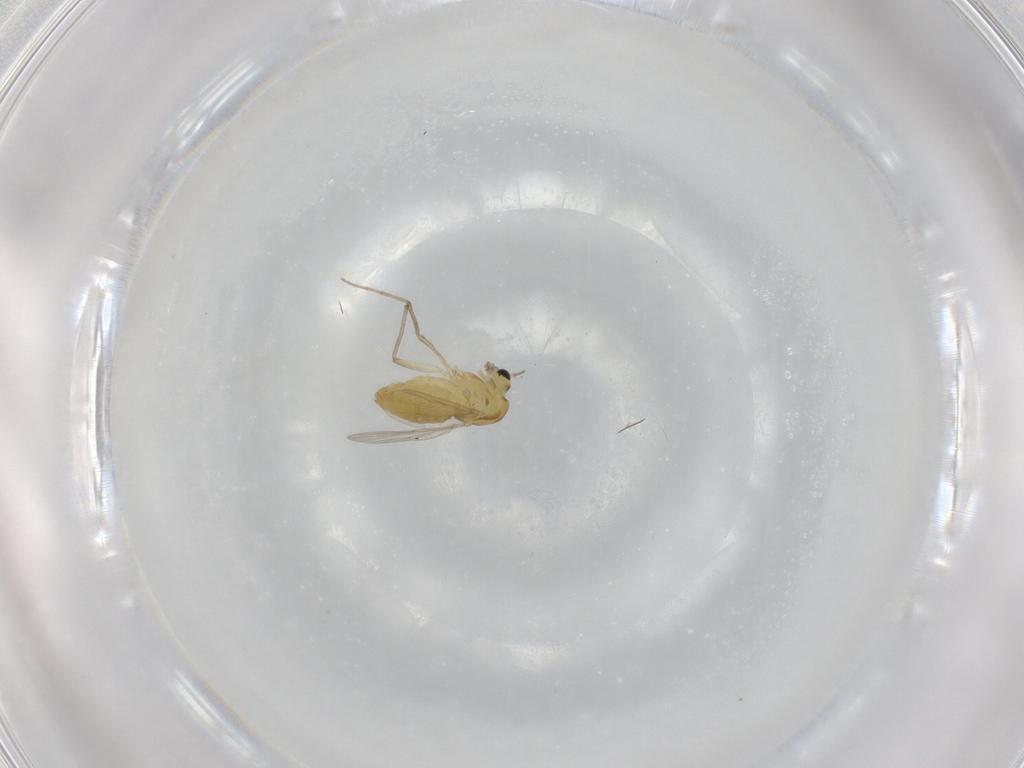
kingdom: Animalia
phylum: Arthropoda
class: Insecta
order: Diptera
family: Chironomidae
